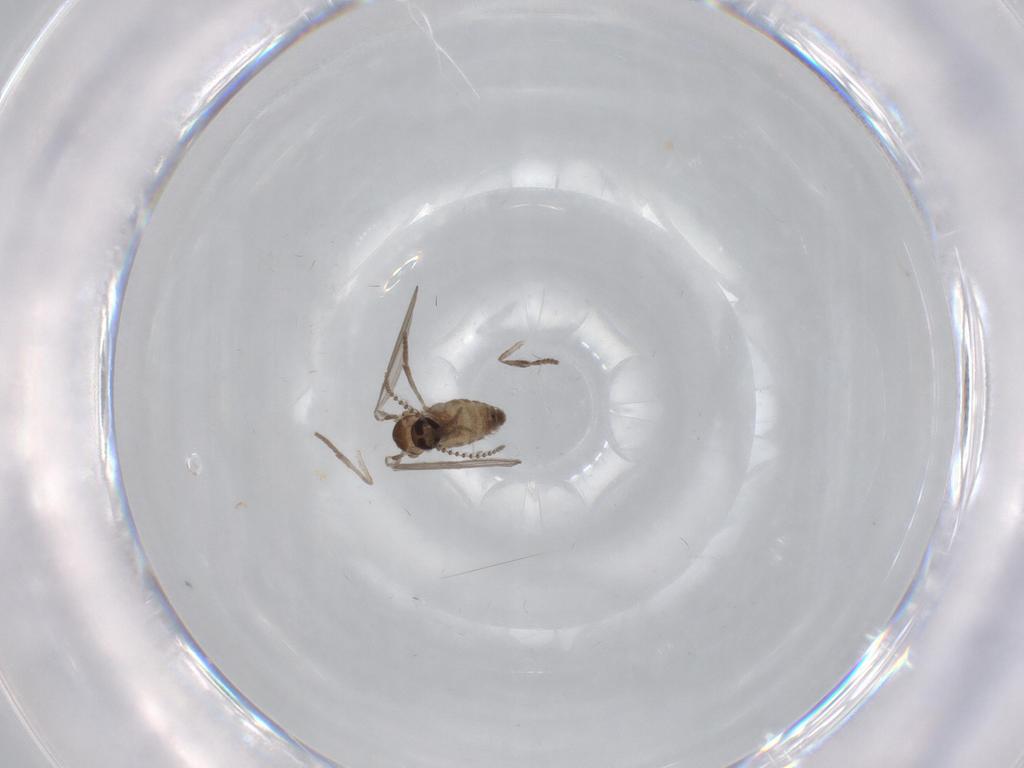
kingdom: Animalia
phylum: Arthropoda
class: Insecta
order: Diptera
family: Psychodidae
